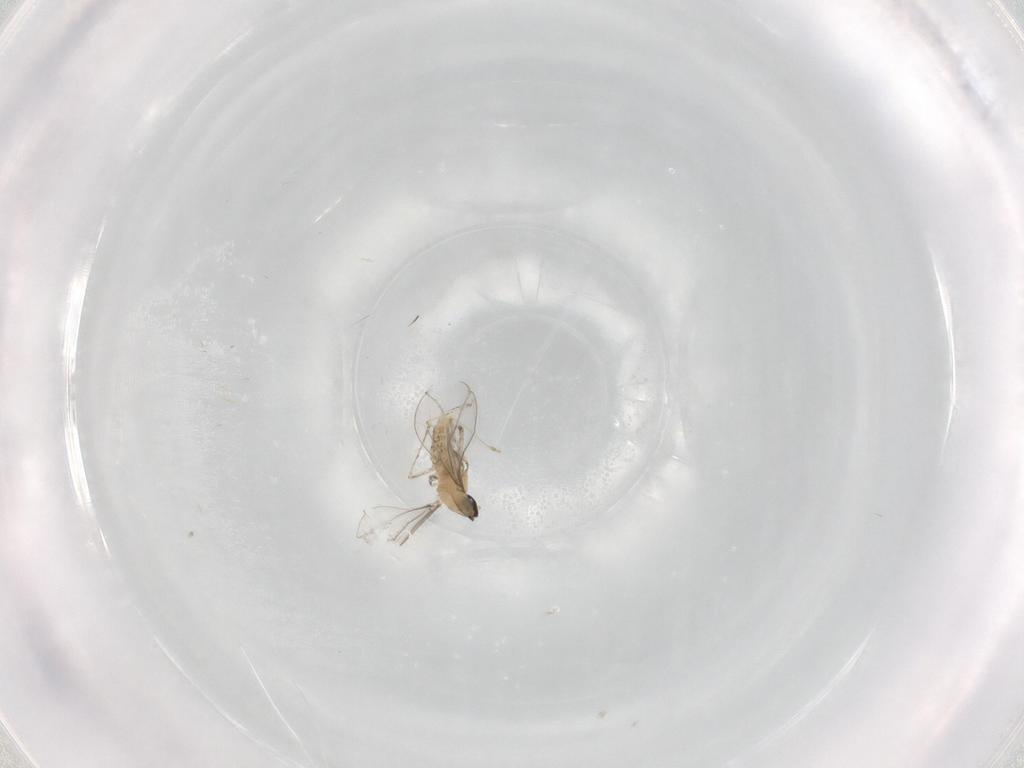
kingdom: Animalia
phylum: Arthropoda
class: Insecta
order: Diptera
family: Cecidomyiidae
